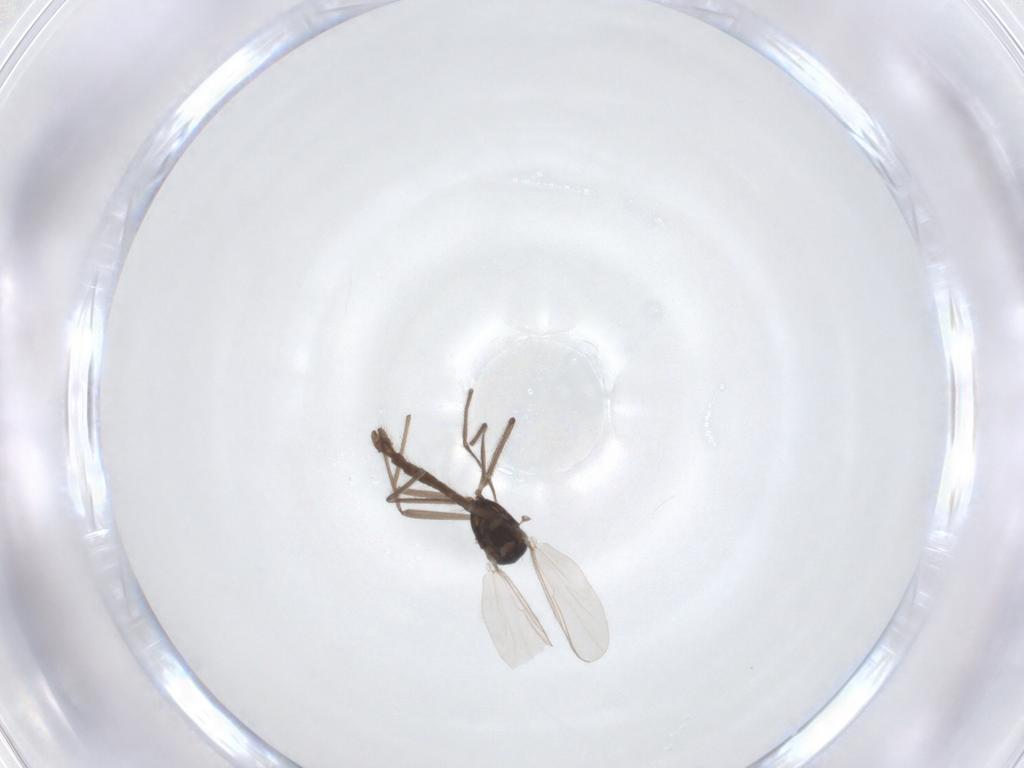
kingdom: Animalia
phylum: Arthropoda
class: Insecta
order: Diptera
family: Chironomidae
